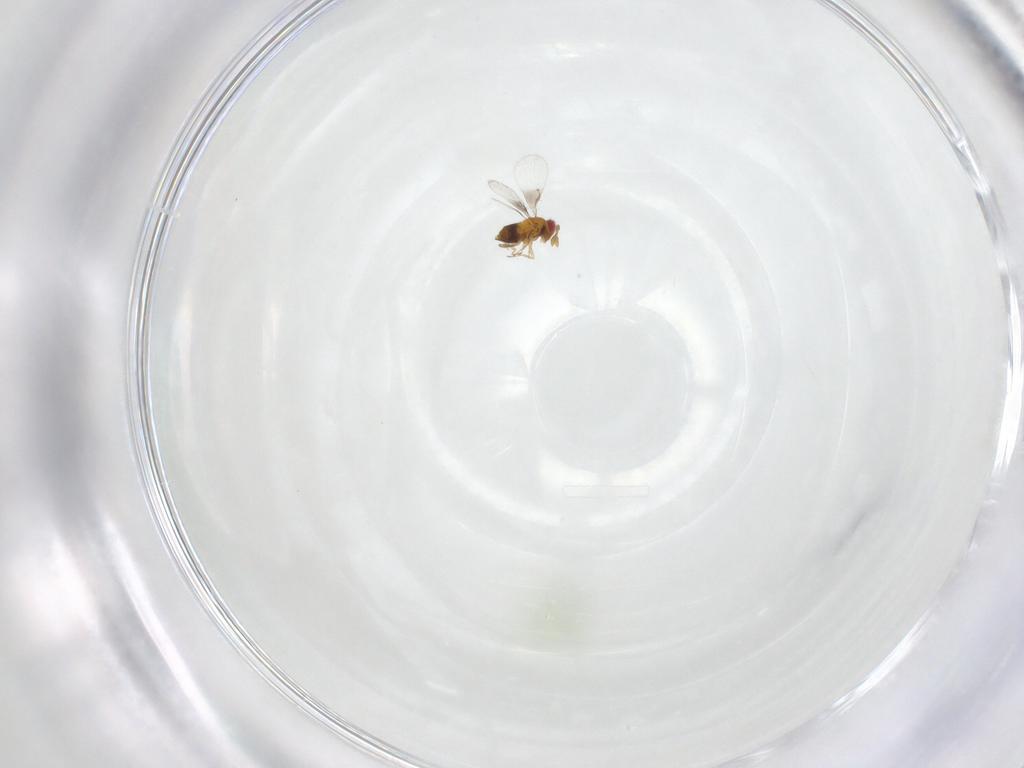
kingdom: Animalia
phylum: Arthropoda
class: Insecta
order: Hymenoptera
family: Trichogrammatidae
